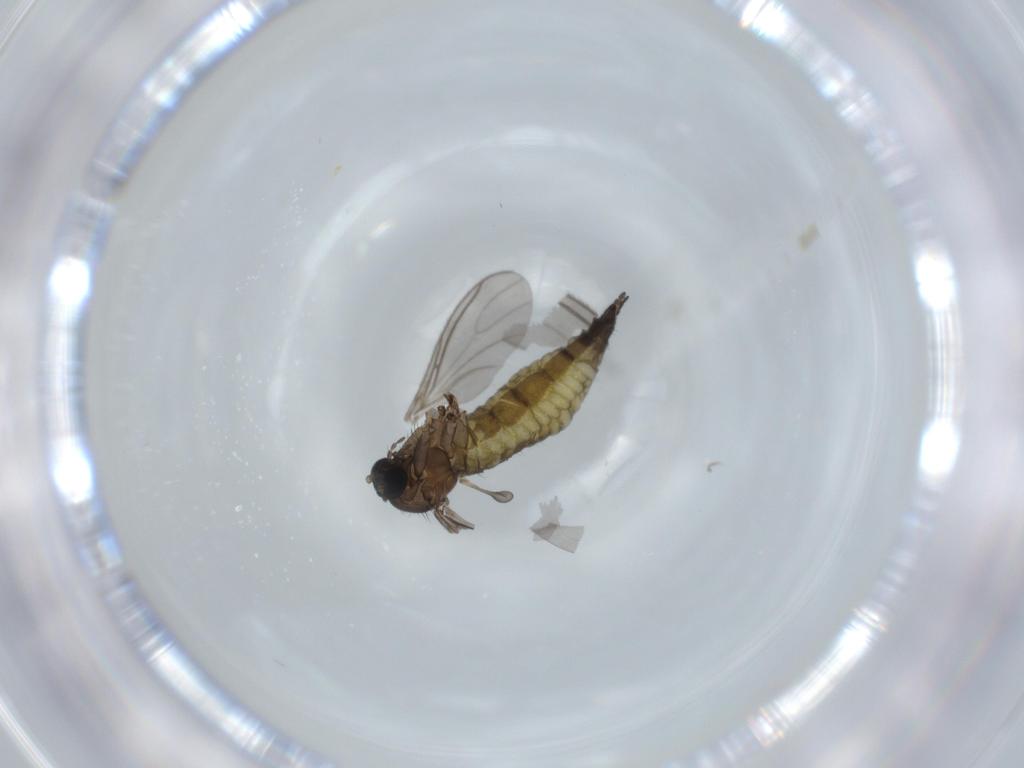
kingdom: Animalia
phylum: Arthropoda
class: Insecta
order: Diptera
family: Sciaridae
